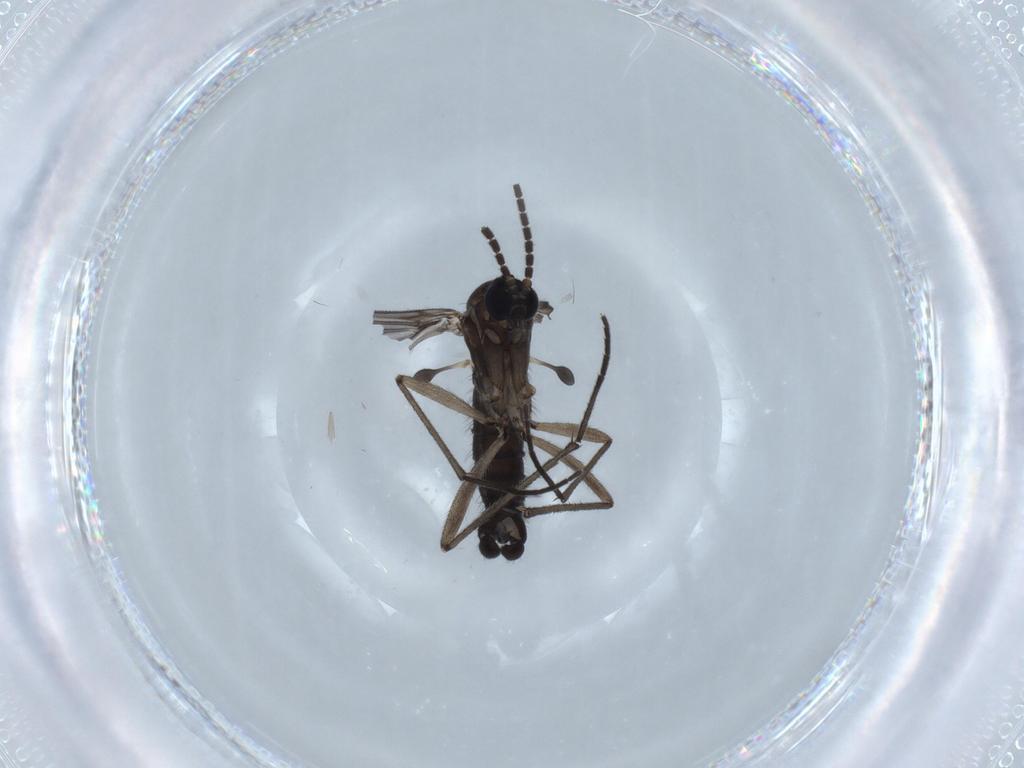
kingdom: Animalia
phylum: Arthropoda
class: Insecta
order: Diptera
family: Sciaridae
